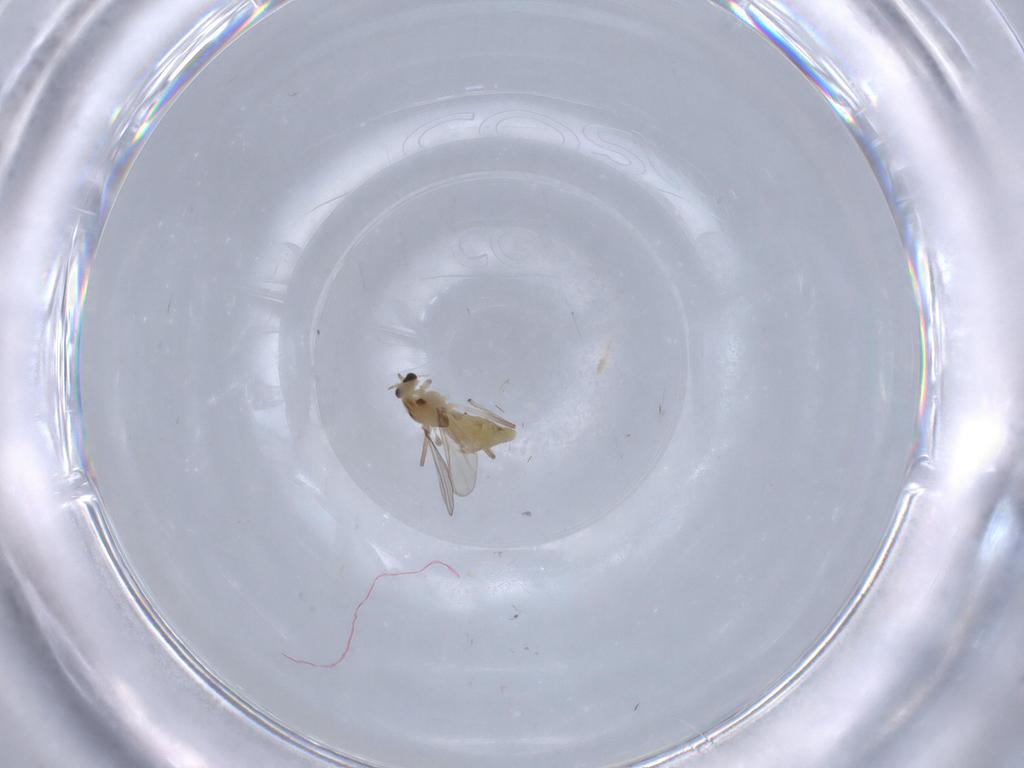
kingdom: Animalia
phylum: Arthropoda
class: Insecta
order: Diptera
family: Chironomidae
